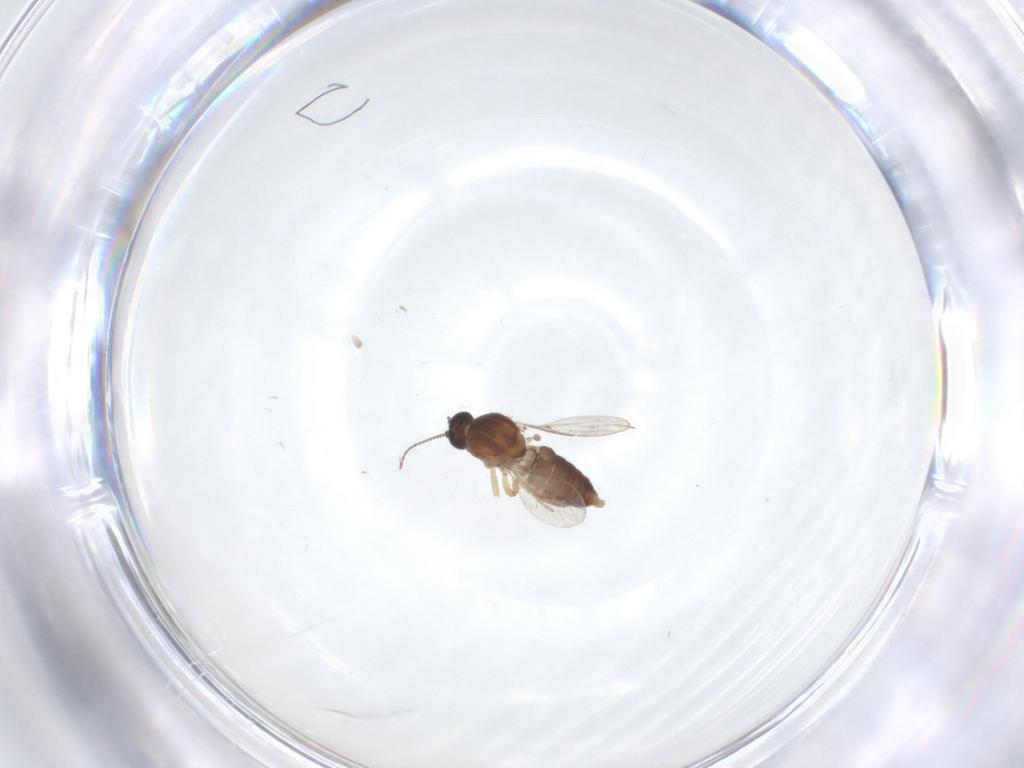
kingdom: Animalia
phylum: Arthropoda
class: Insecta
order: Diptera
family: Ceratopogonidae
